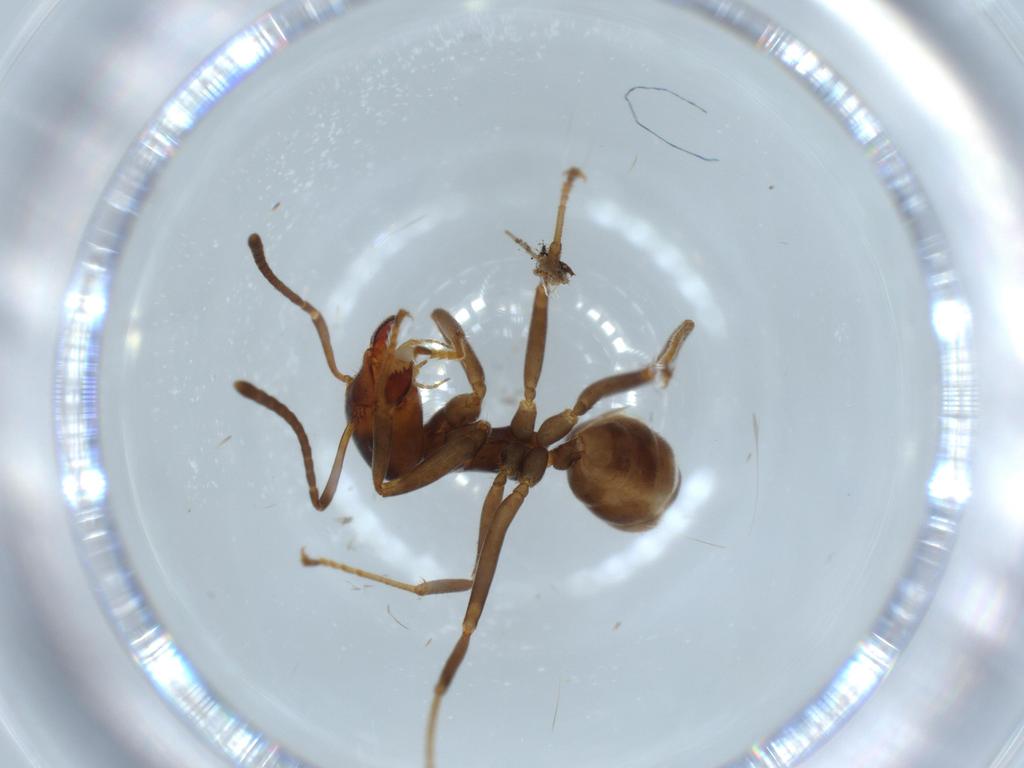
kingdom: Animalia
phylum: Arthropoda
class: Insecta
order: Hymenoptera
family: Formicidae
